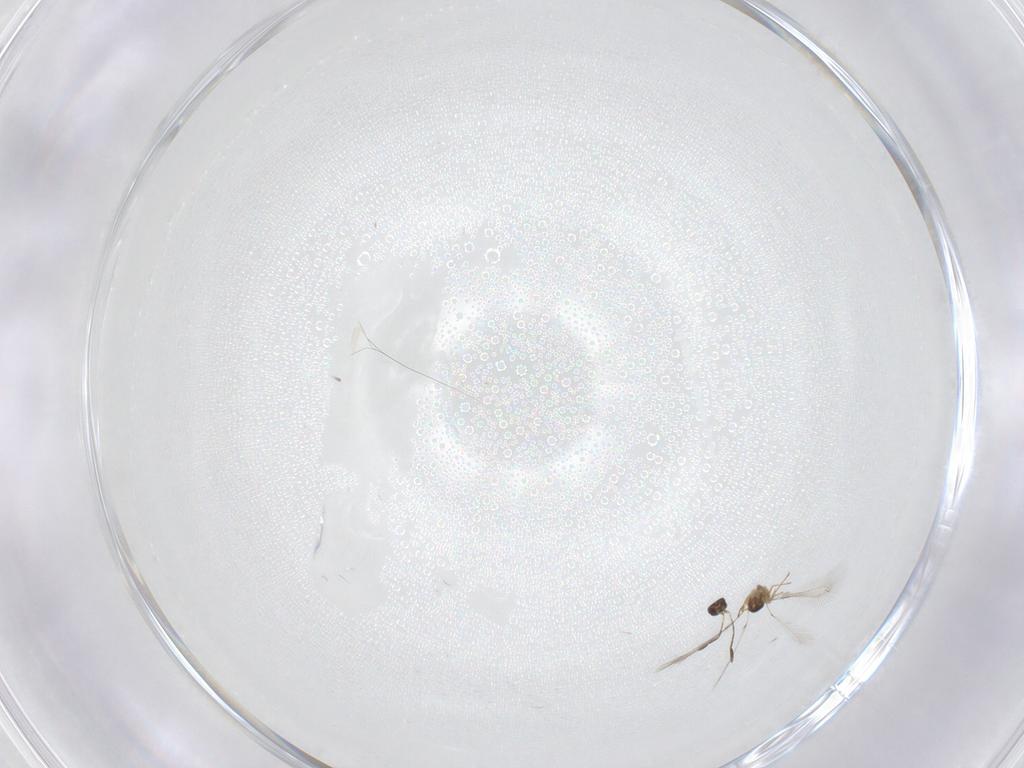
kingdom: Animalia
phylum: Arthropoda
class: Insecta
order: Hymenoptera
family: Mymaridae
